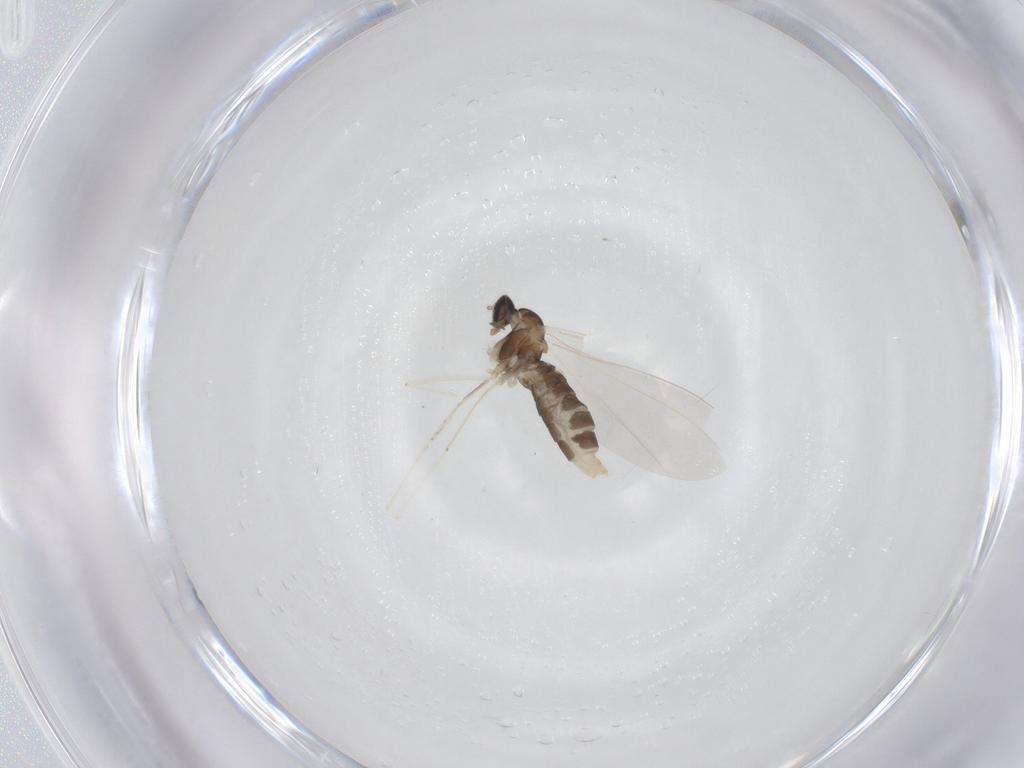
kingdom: Animalia
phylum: Arthropoda
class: Insecta
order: Diptera
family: Cecidomyiidae
